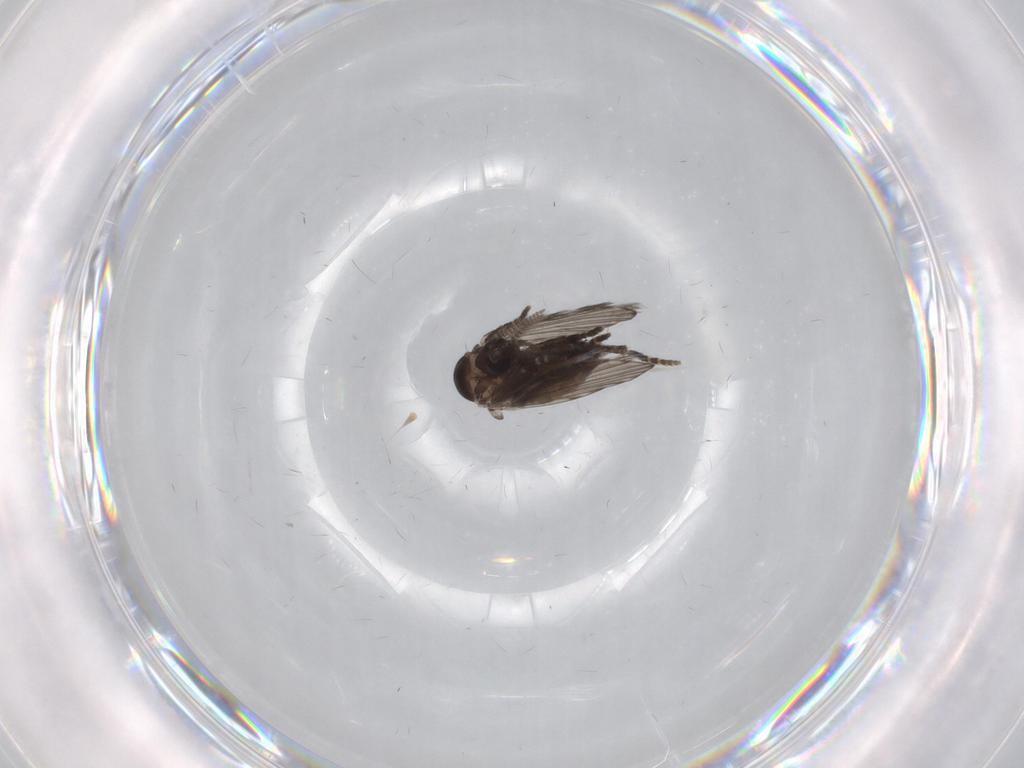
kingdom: Animalia
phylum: Arthropoda
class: Insecta
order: Diptera
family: Psychodidae
